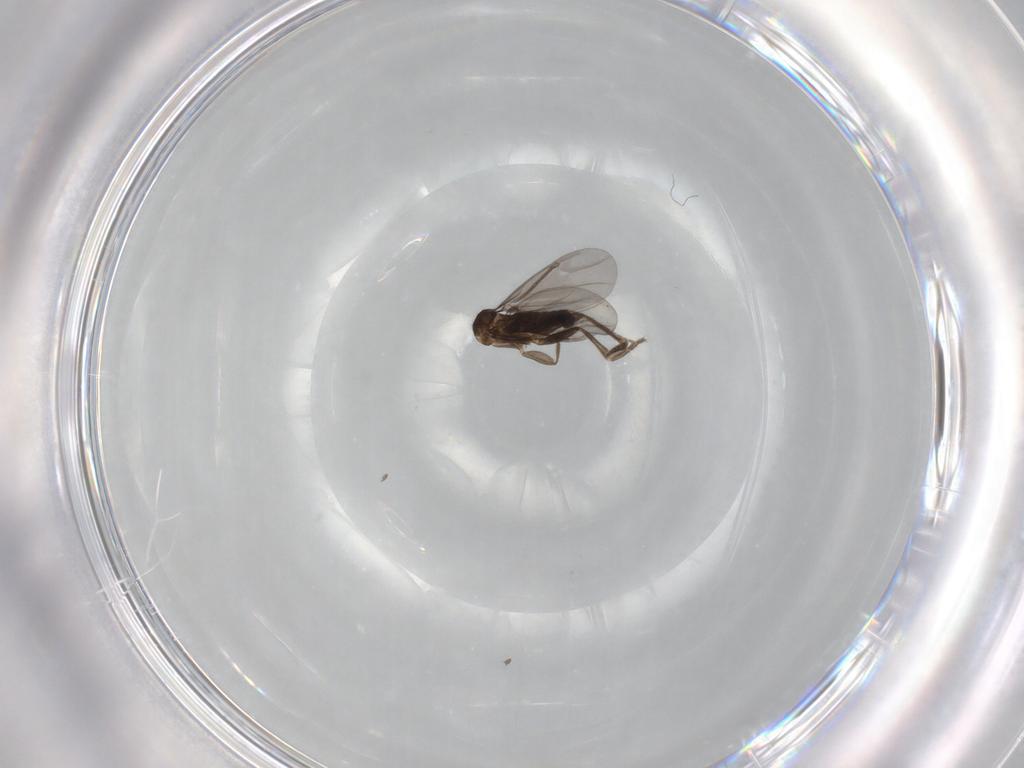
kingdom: Animalia
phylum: Arthropoda
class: Insecta
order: Diptera
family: Phoridae
